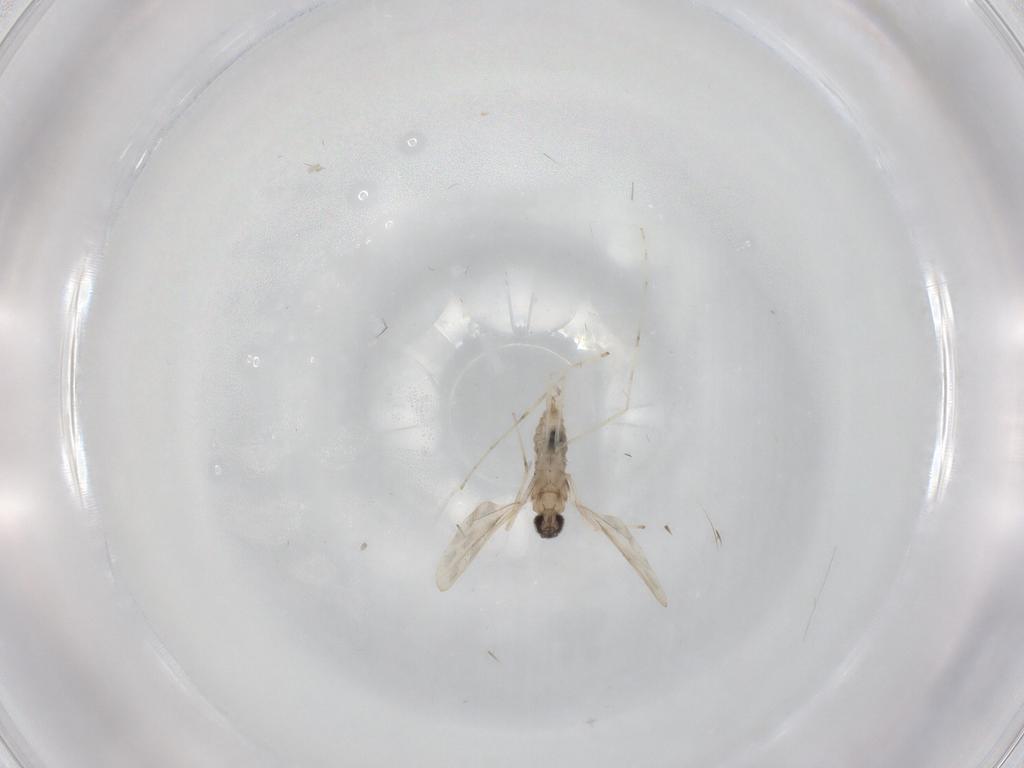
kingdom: Animalia
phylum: Arthropoda
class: Insecta
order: Diptera
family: Cecidomyiidae
